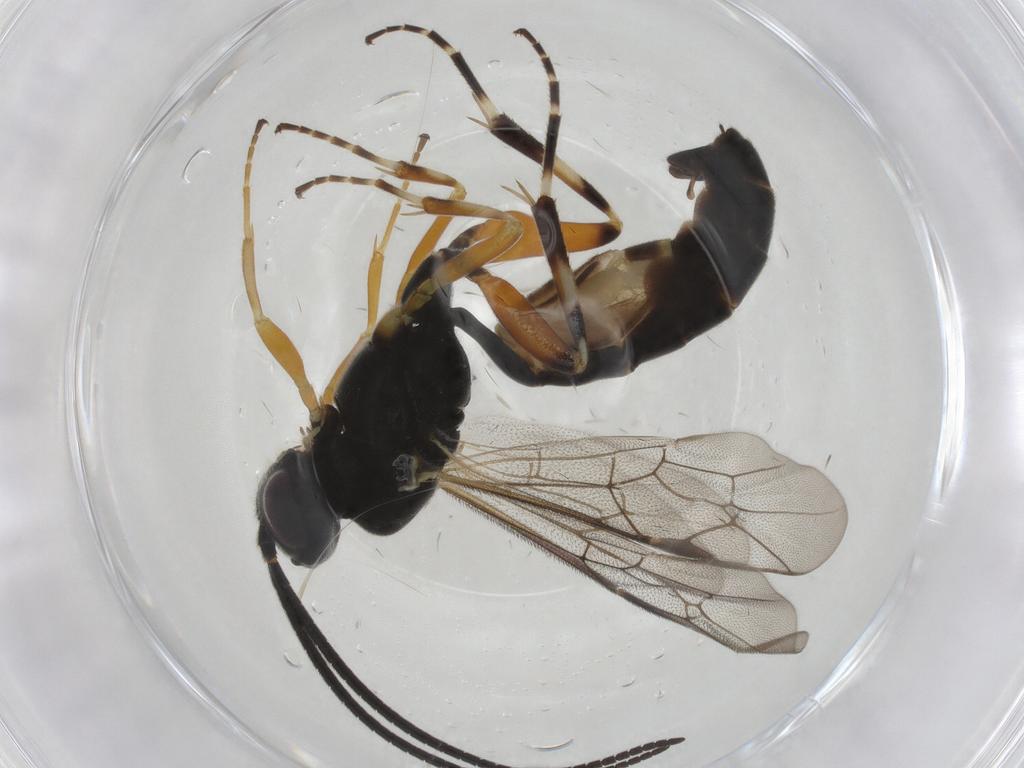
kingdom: Animalia
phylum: Arthropoda
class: Insecta
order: Hymenoptera
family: Ichneumonidae
